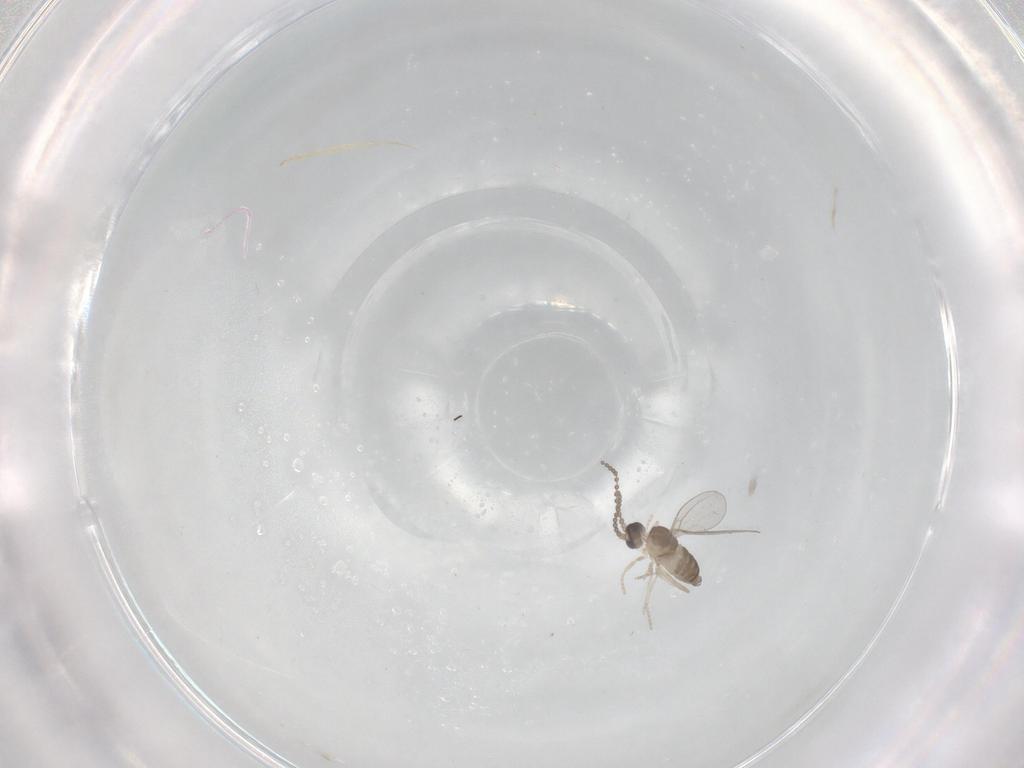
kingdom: Animalia
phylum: Arthropoda
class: Insecta
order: Diptera
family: Cecidomyiidae
